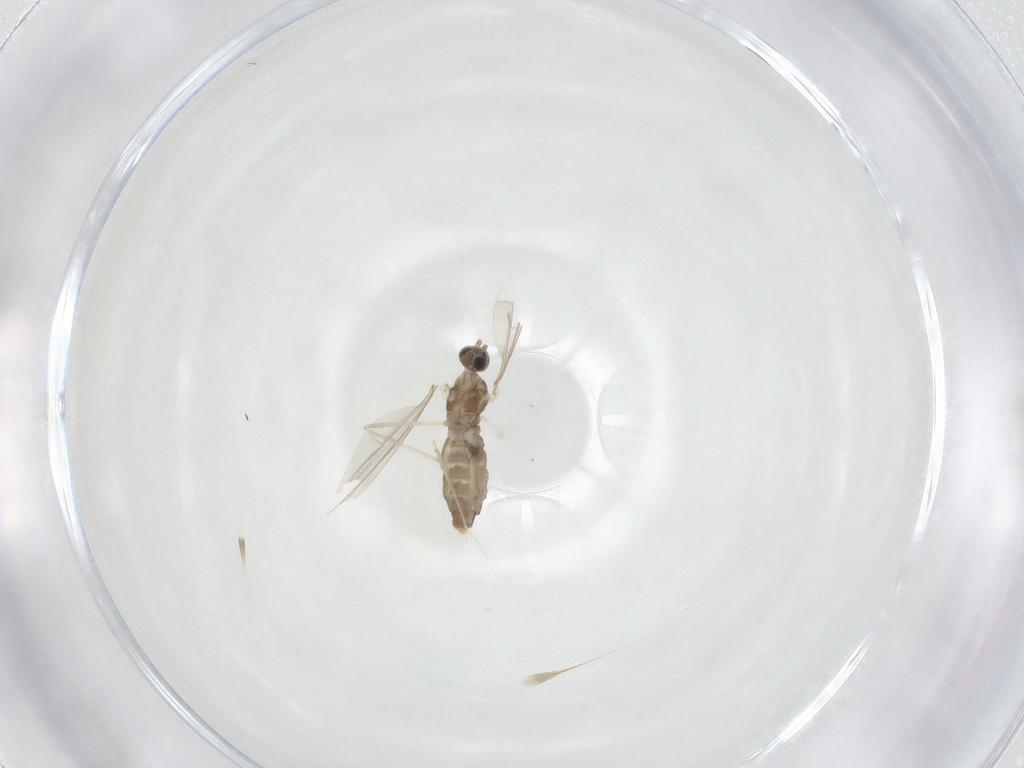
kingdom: Animalia
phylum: Arthropoda
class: Insecta
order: Diptera
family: Cecidomyiidae
